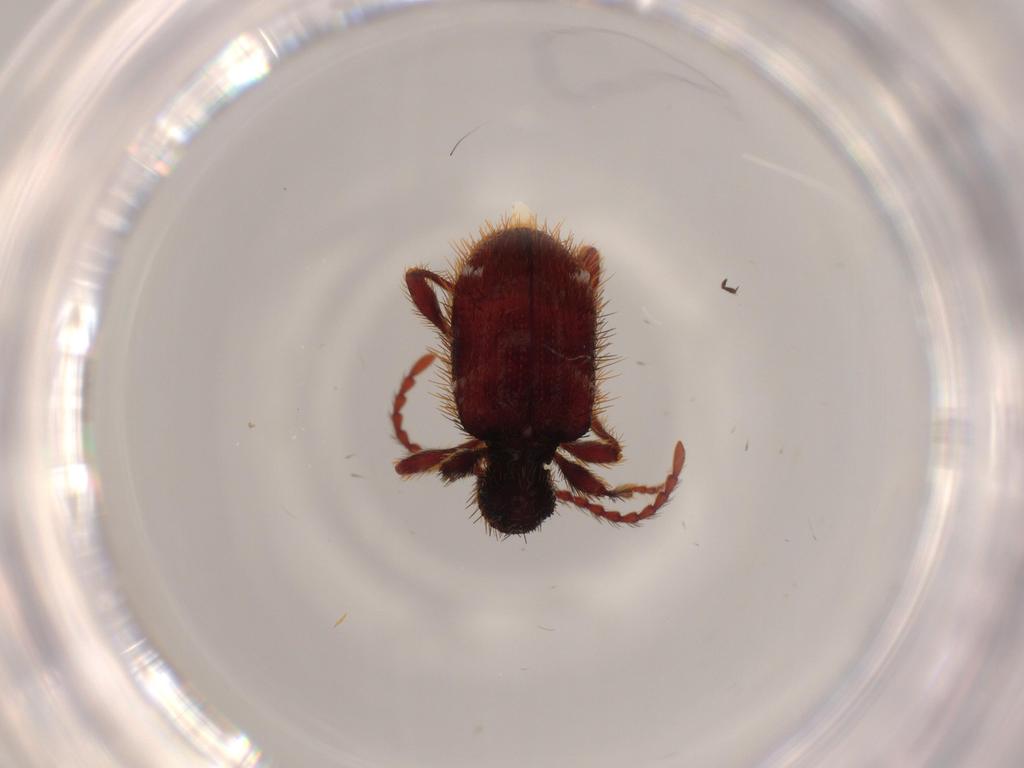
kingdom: Animalia
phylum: Arthropoda
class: Insecta
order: Coleoptera
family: Ptinidae
